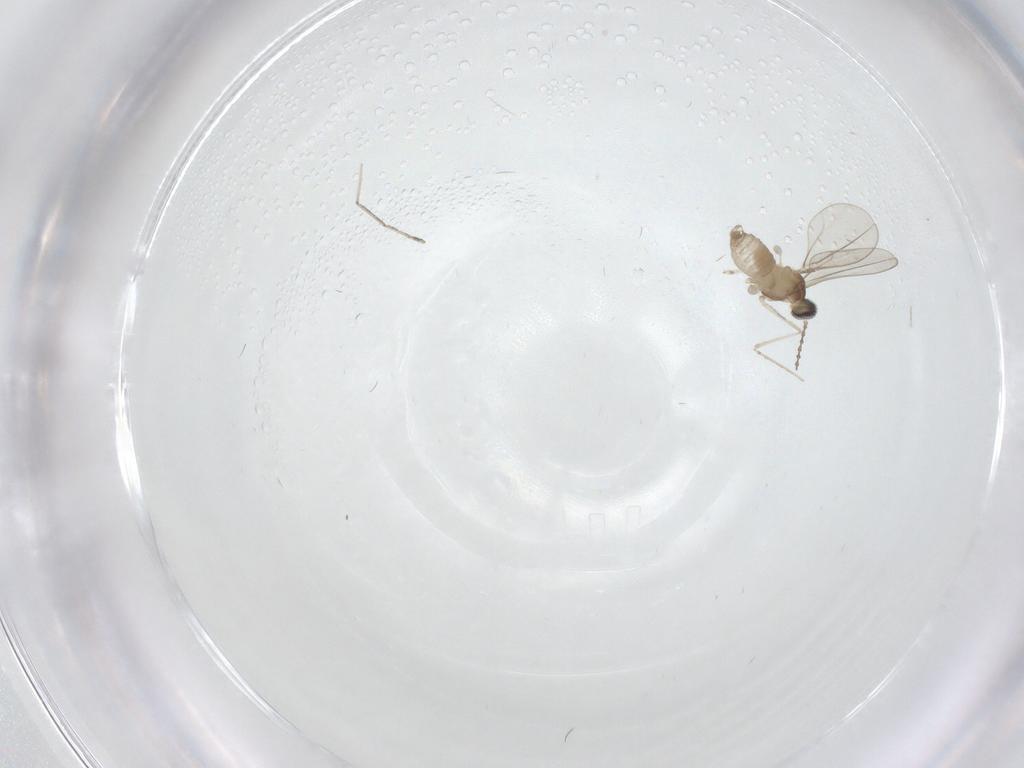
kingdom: Animalia
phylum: Arthropoda
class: Insecta
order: Diptera
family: Cecidomyiidae
